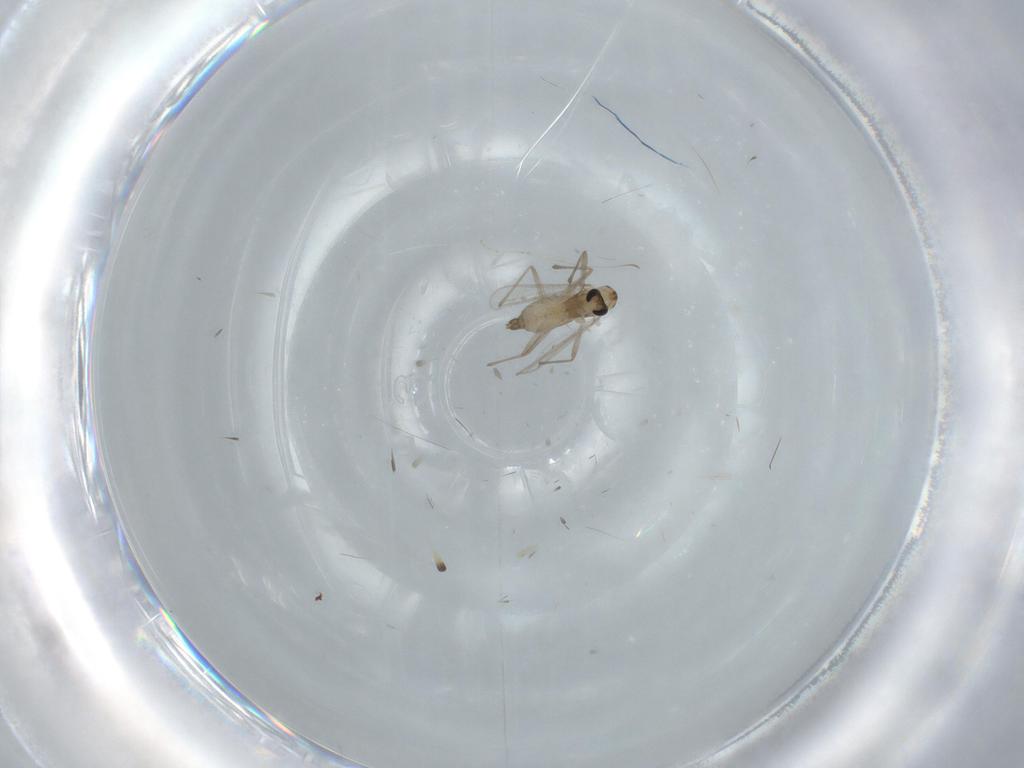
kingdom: Animalia
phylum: Arthropoda
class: Insecta
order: Diptera
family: Chironomidae
